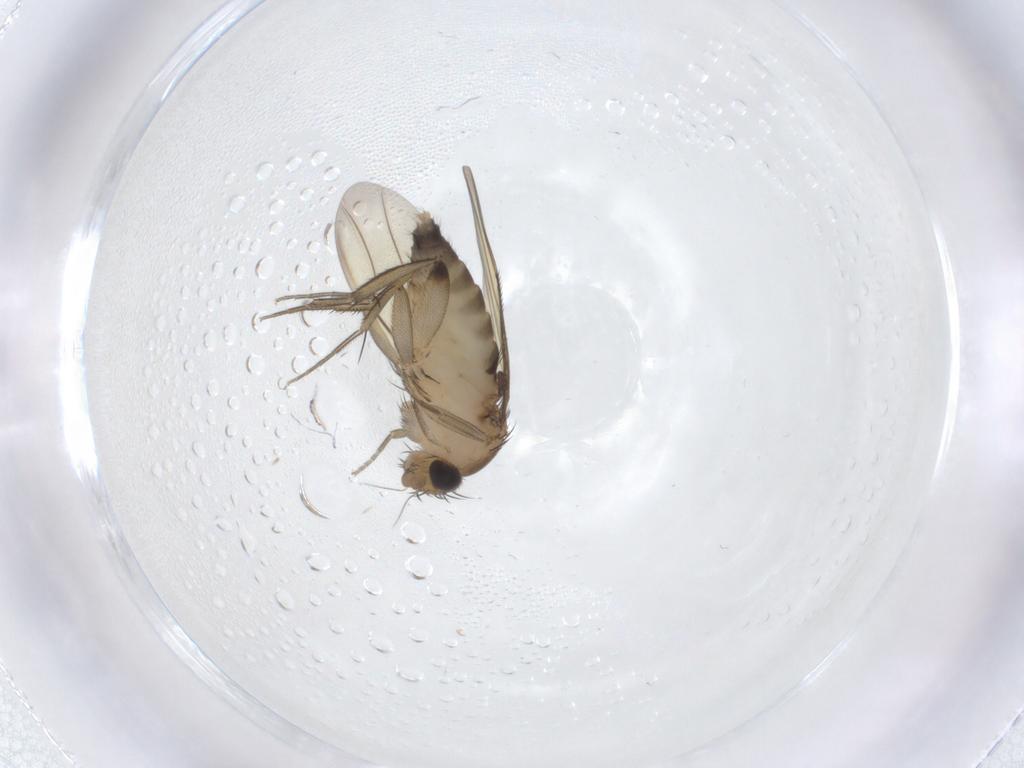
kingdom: Animalia
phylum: Arthropoda
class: Insecta
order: Diptera
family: Phoridae
